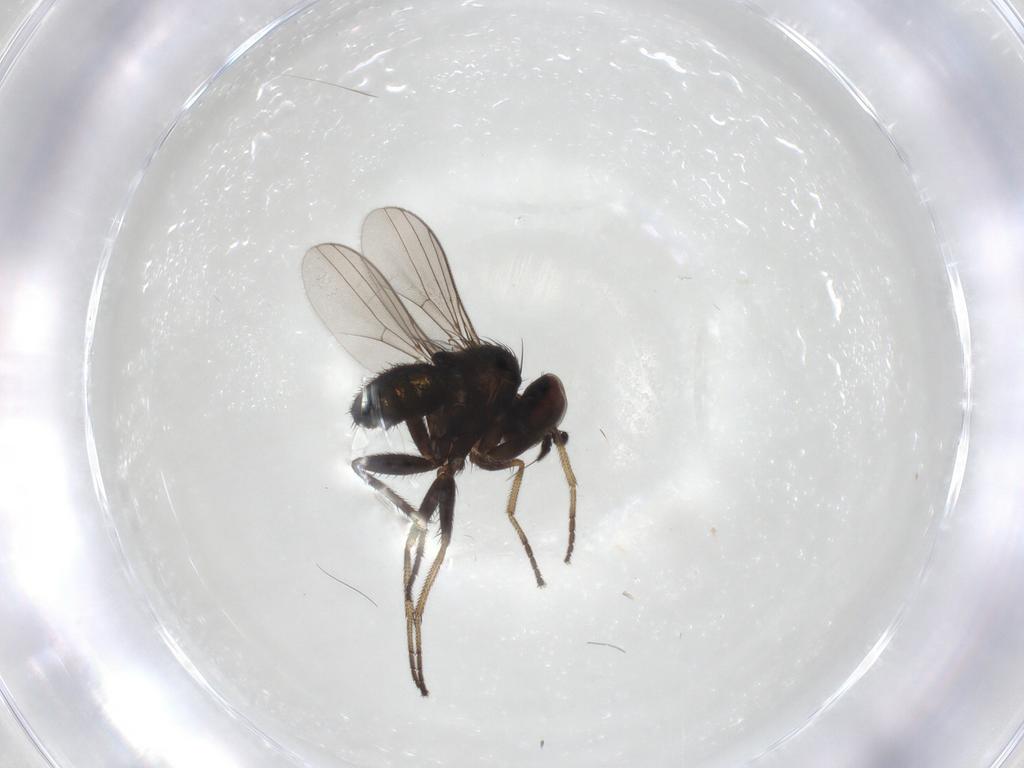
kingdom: Animalia
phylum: Arthropoda
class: Insecta
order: Diptera
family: Dolichopodidae
